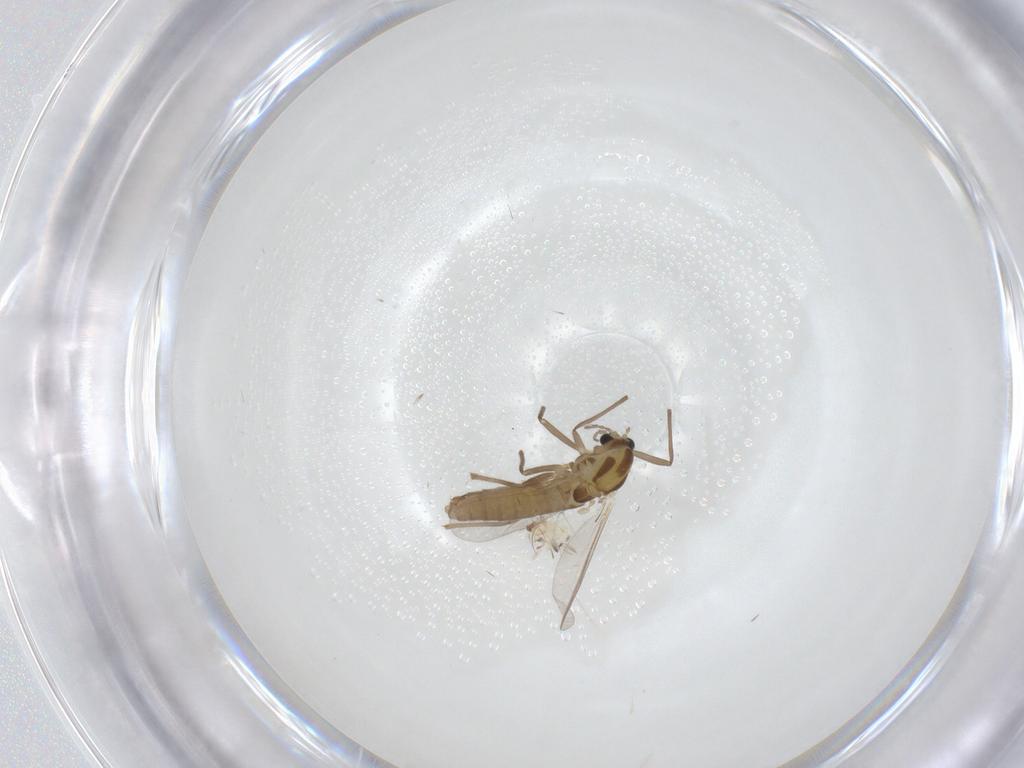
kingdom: Animalia
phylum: Arthropoda
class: Insecta
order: Diptera
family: Chironomidae
